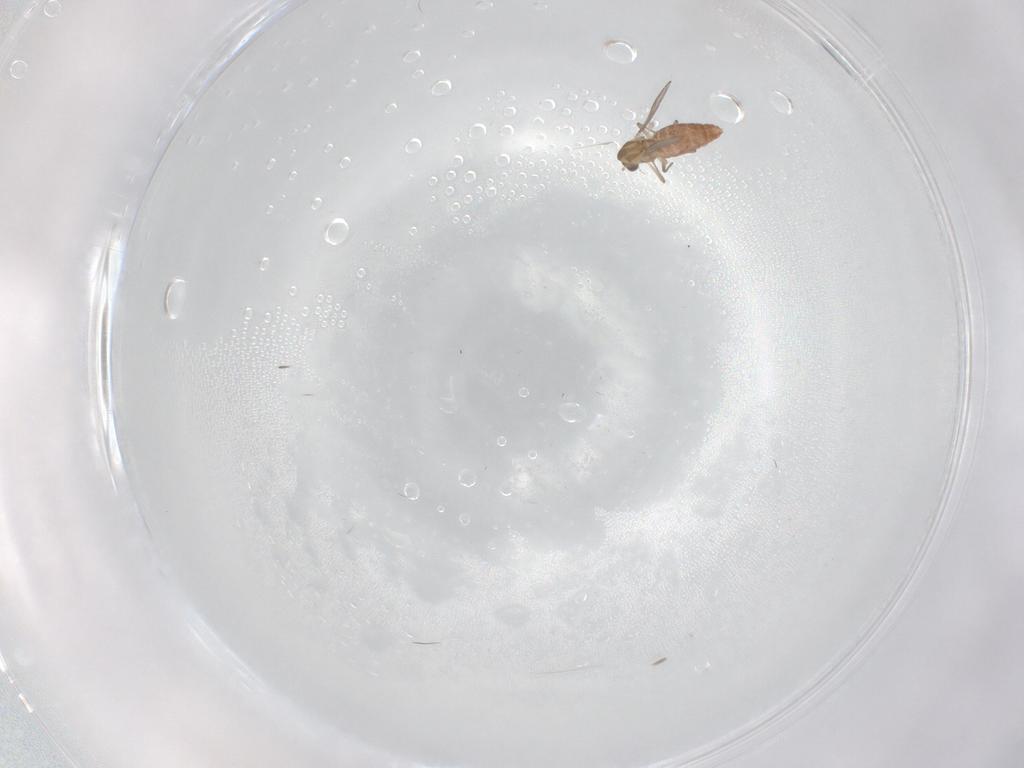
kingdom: Animalia
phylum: Arthropoda
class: Insecta
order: Diptera
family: Chironomidae
